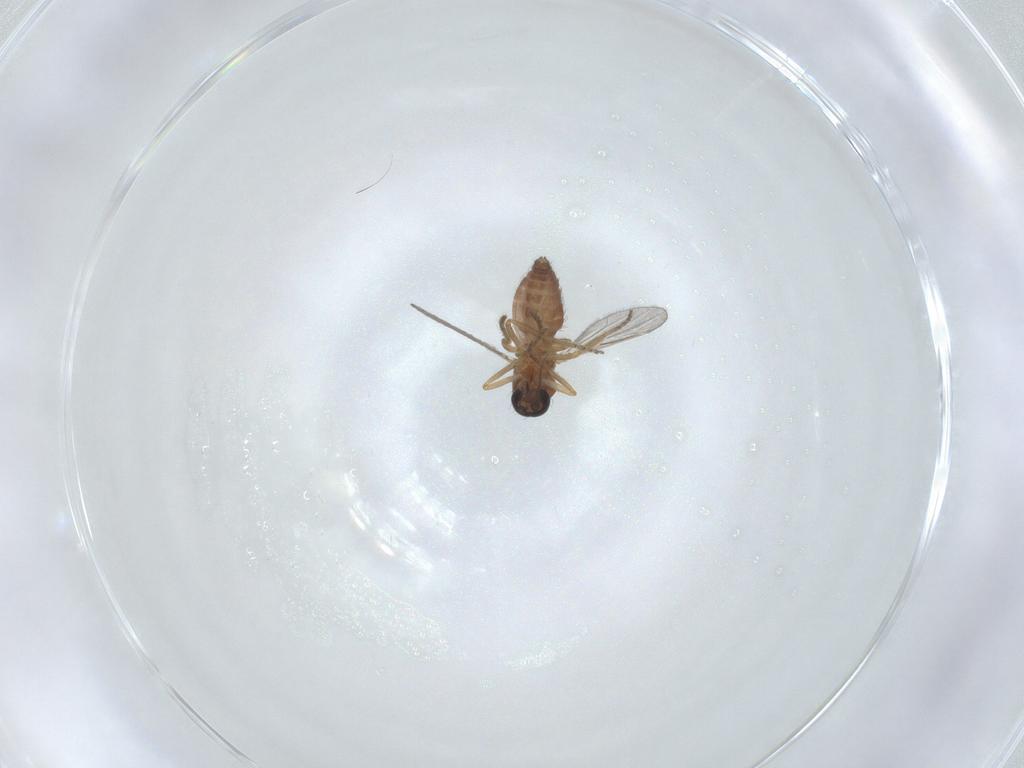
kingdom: Animalia
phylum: Arthropoda
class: Insecta
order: Diptera
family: Ceratopogonidae
